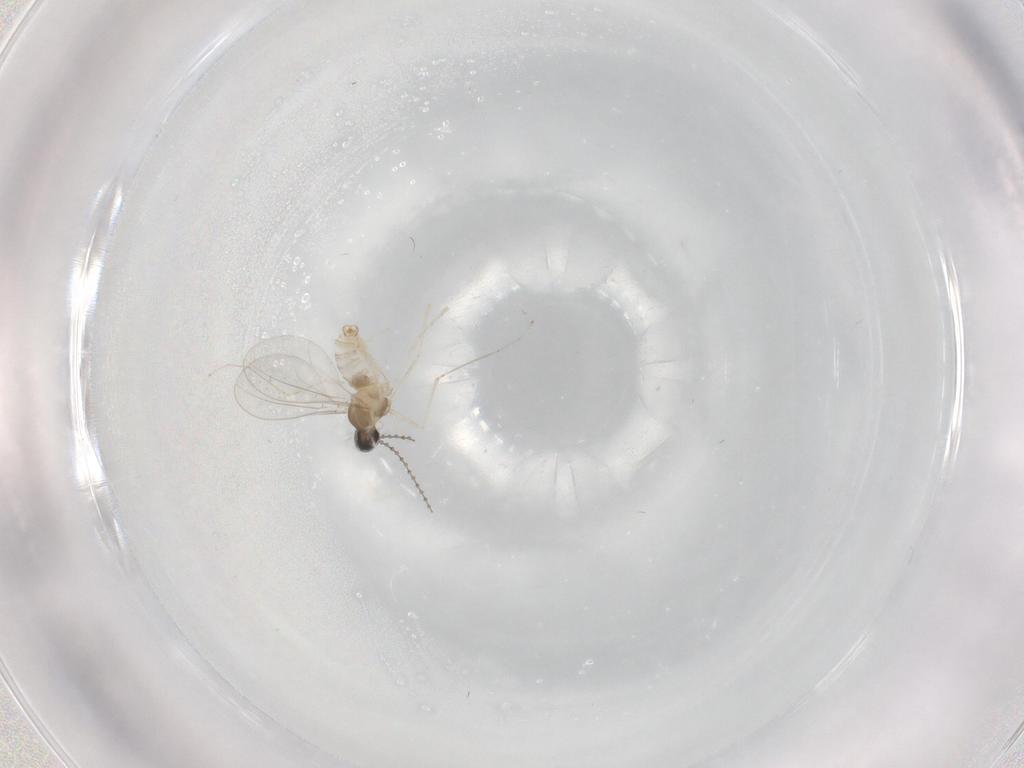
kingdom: Animalia
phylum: Arthropoda
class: Insecta
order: Diptera
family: Cecidomyiidae
